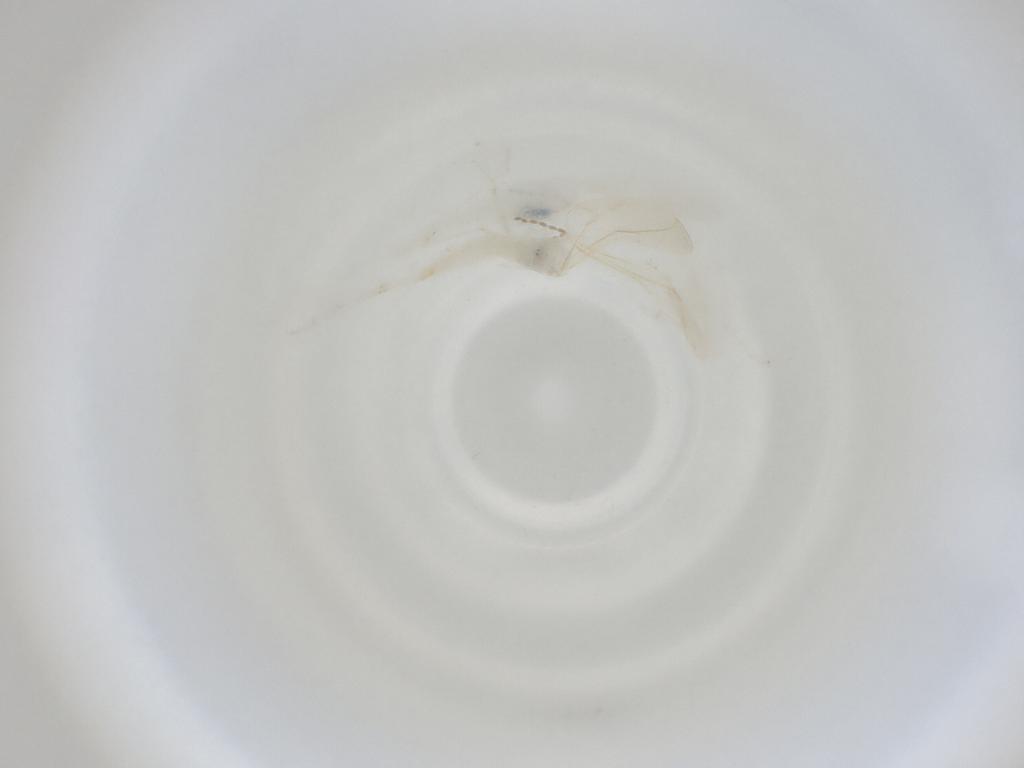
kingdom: Animalia
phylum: Arthropoda
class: Insecta
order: Diptera
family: Cecidomyiidae
